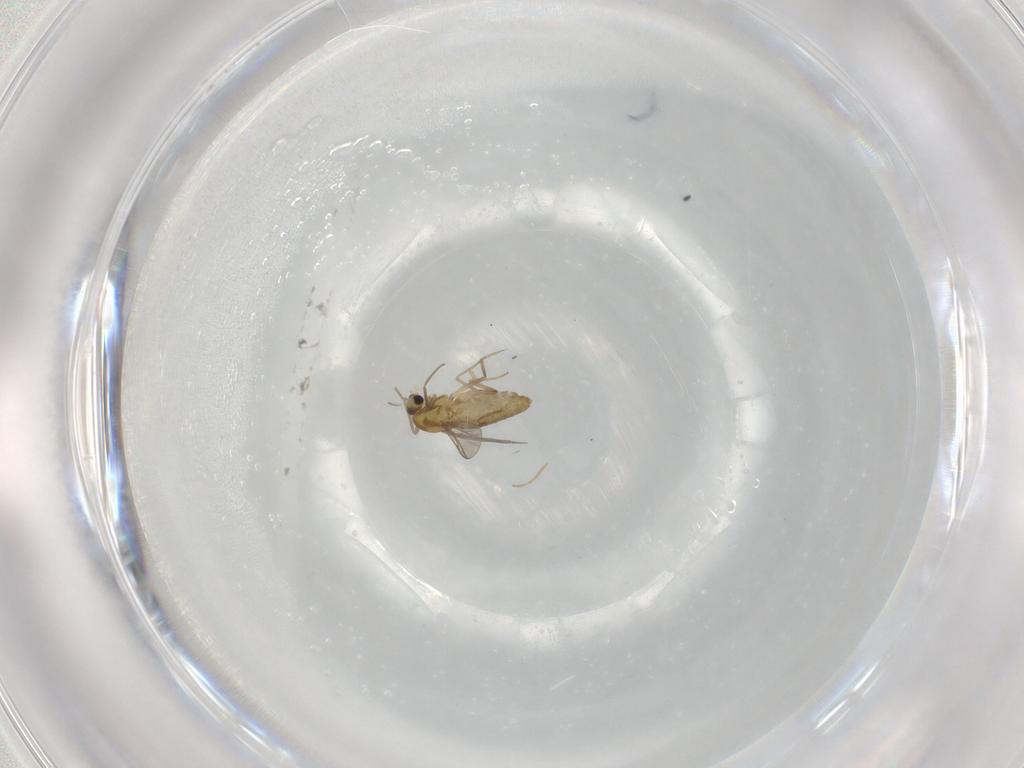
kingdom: Animalia
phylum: Arthropoda
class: Insecta
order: Diptera
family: Chironomidae
